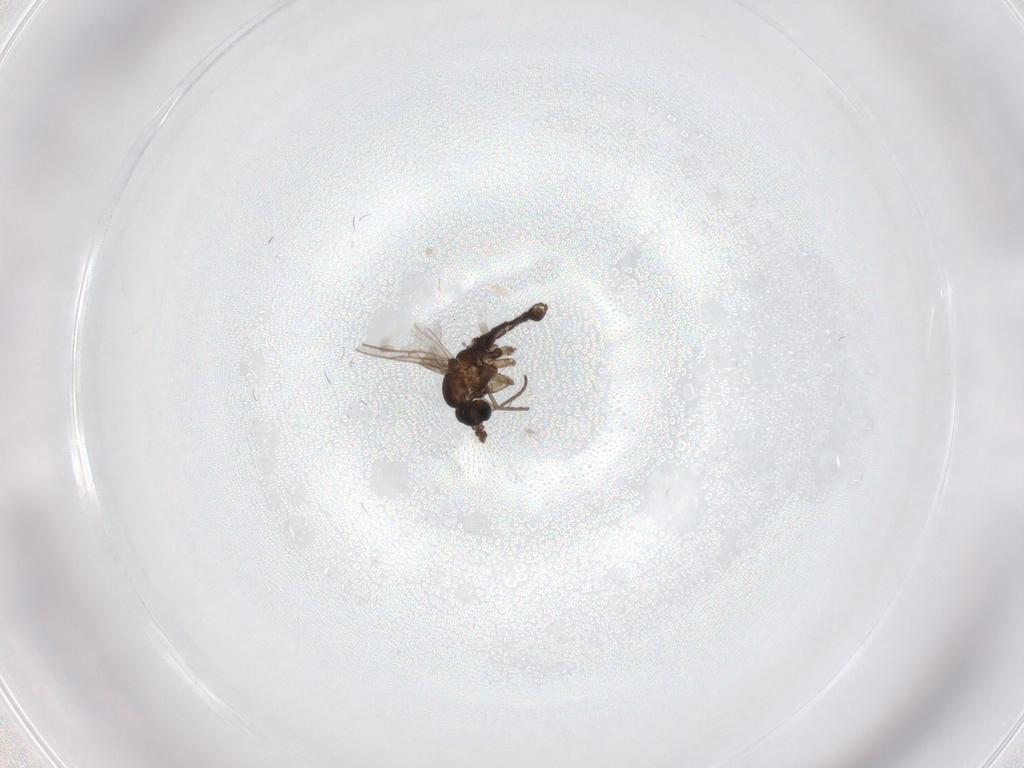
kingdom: Animalia
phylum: Arthropoda
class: Insecta
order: Diptera
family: Sciaridae
